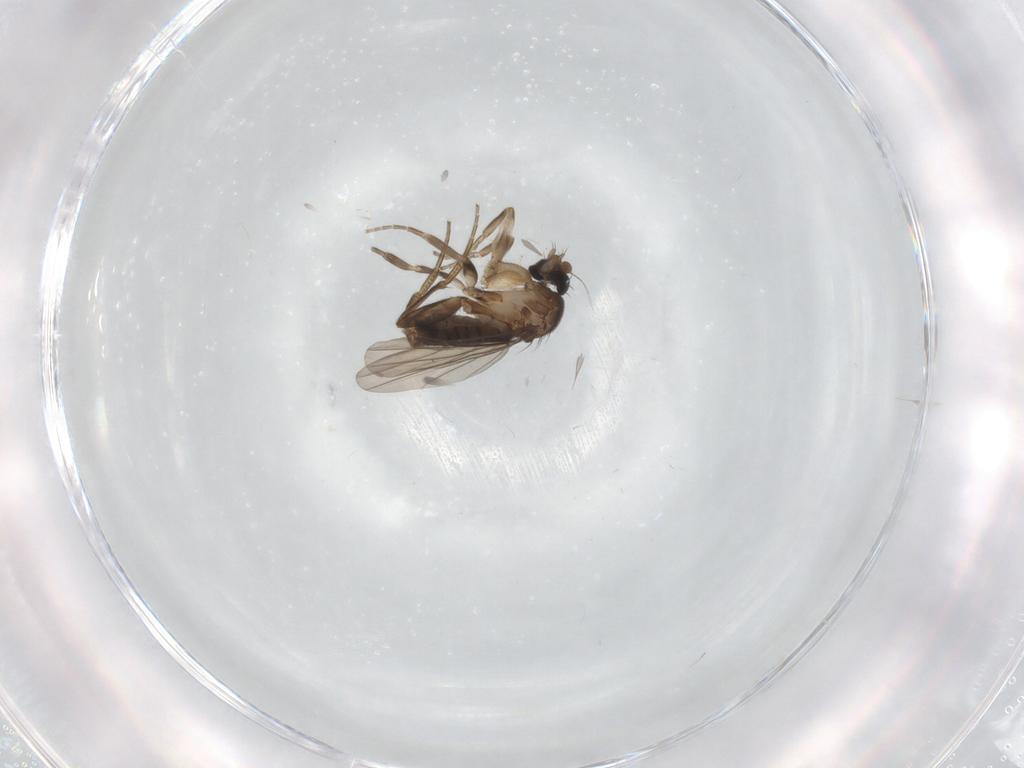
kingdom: Animalia
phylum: Arthropoda
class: Insecta
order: Diptera
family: Phoridae
